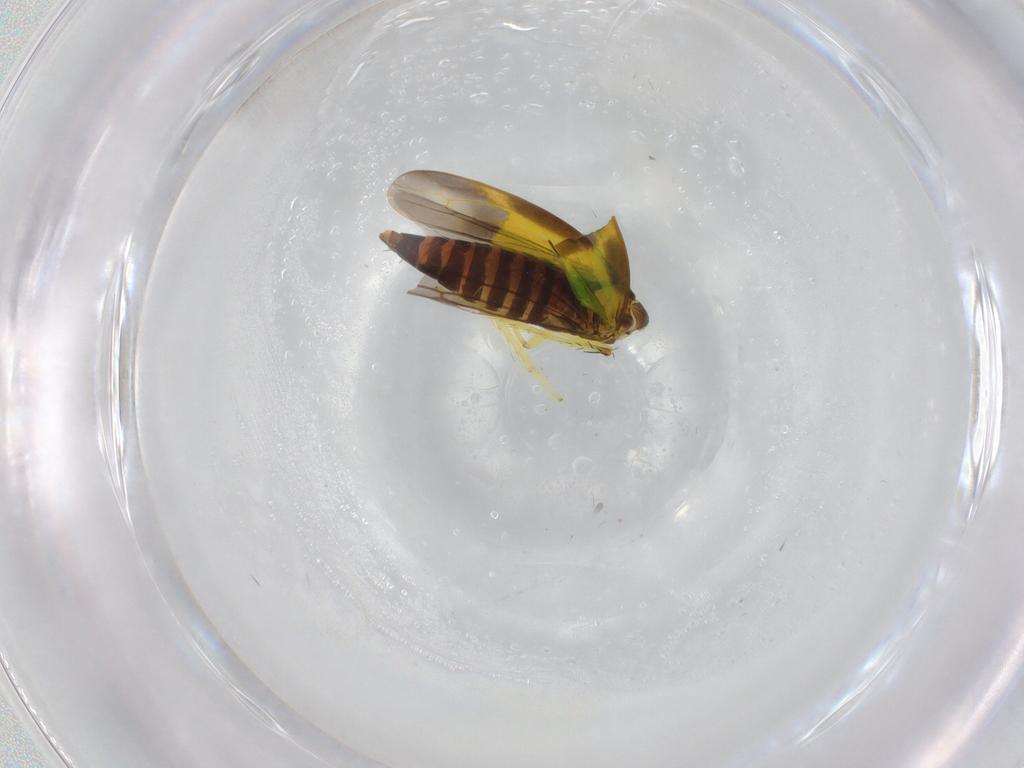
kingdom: Animalia
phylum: Arthropoda
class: Insecta
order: Hemiptera
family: Cicadellidae
